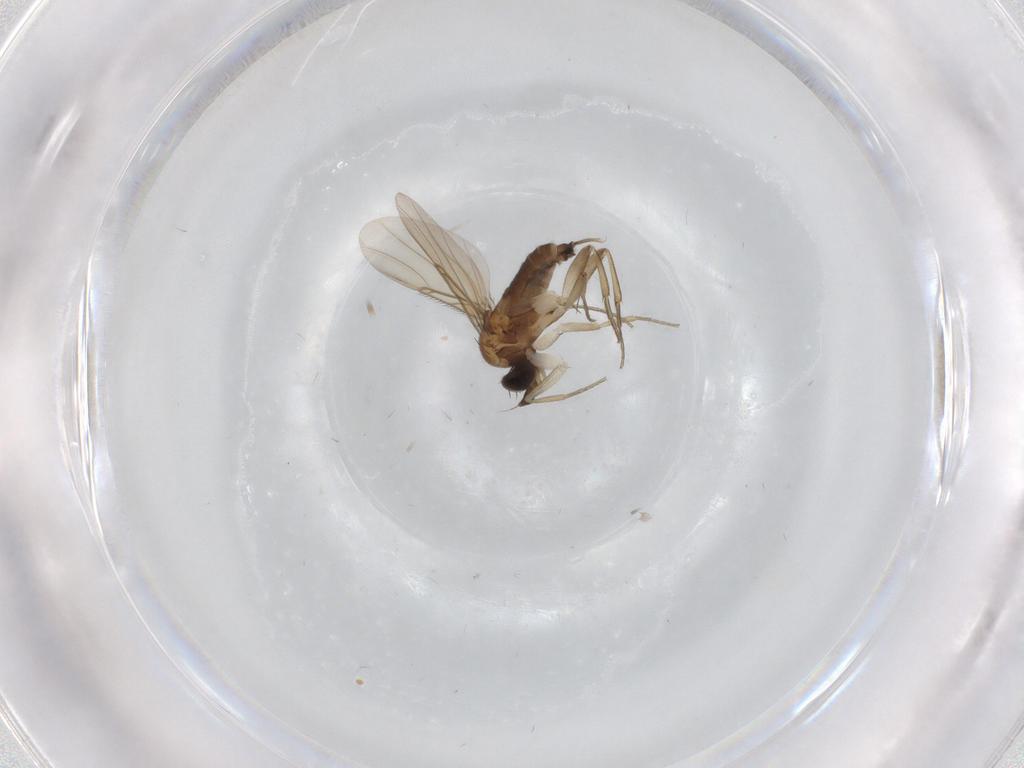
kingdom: Animalia
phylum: Arthropoda
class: Insecta
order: Diptera
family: Phoridae
